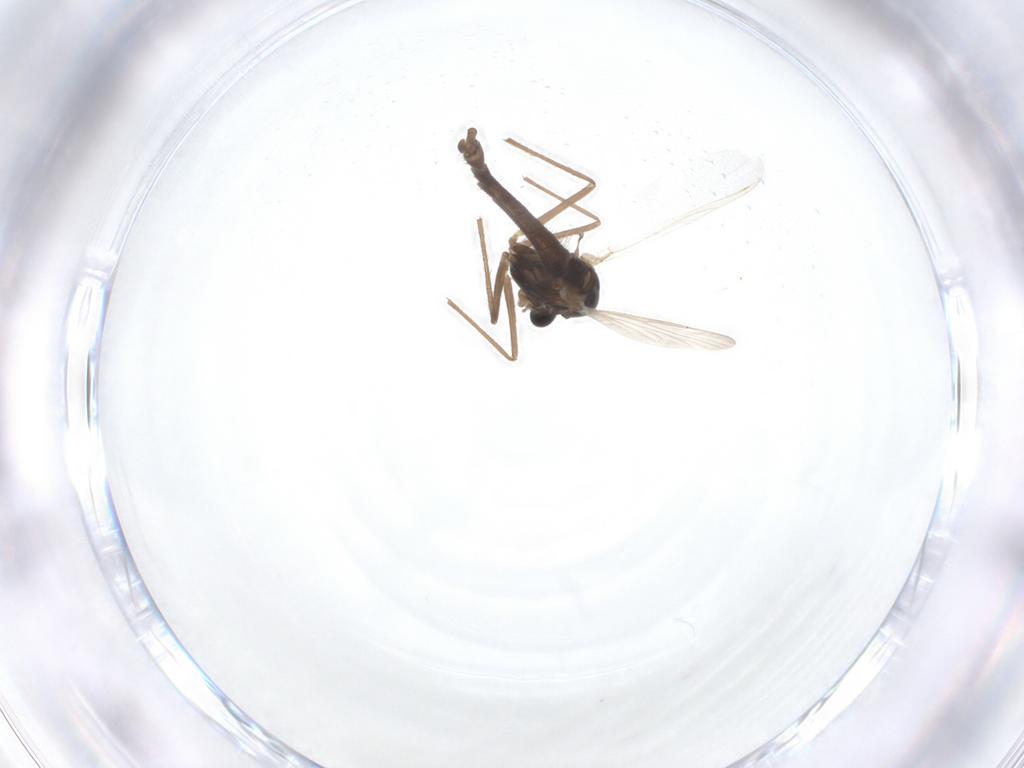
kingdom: Animalia
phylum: Arthropoda
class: Insecta
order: Diptera
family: Chironomidae
